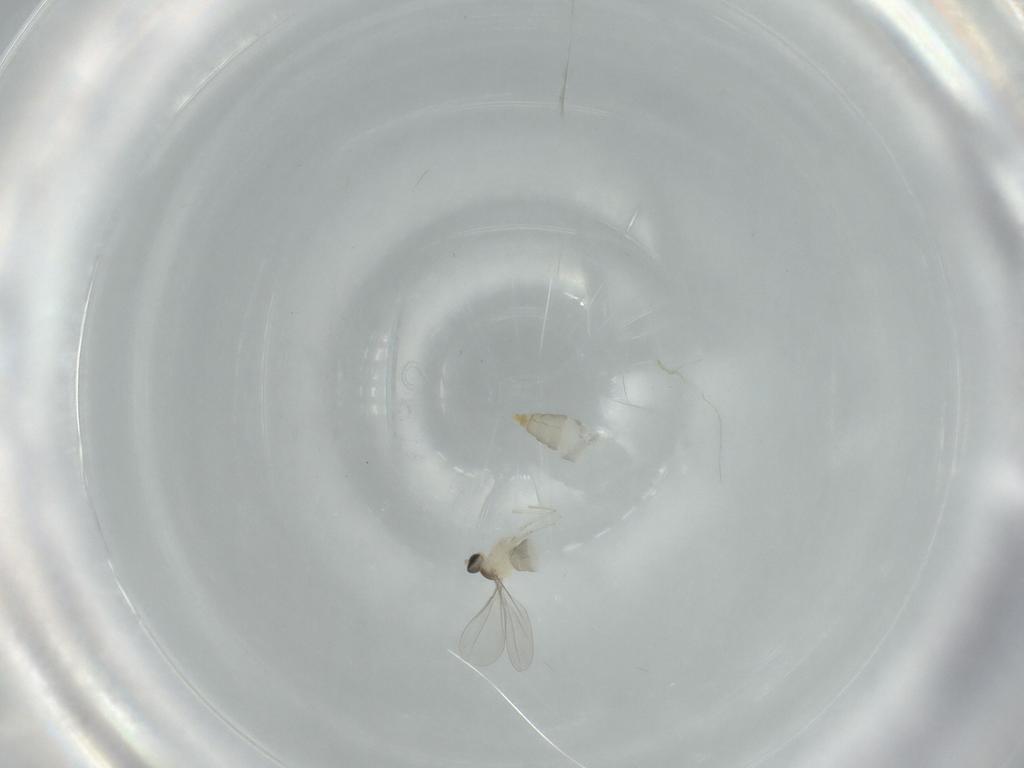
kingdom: Animalia
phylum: Arthropoda
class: Insecta
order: Diptera
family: Cecidomyiidae
